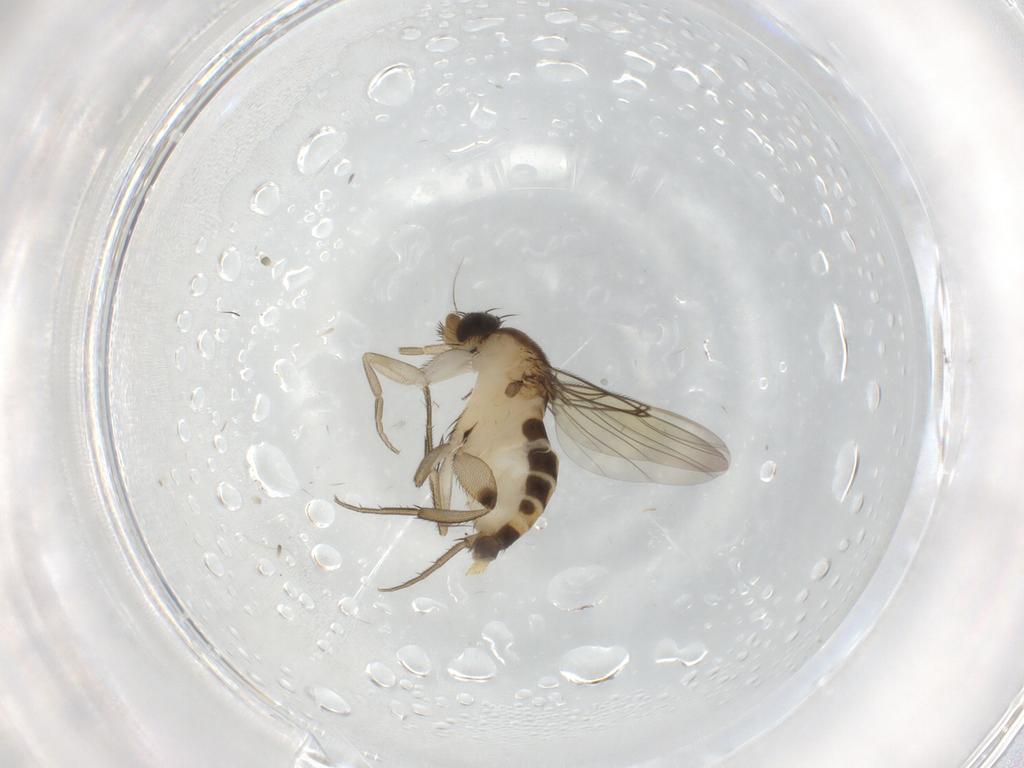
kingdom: Animalia
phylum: Arthropoda
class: Insecta
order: Diptera
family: Phoridae
